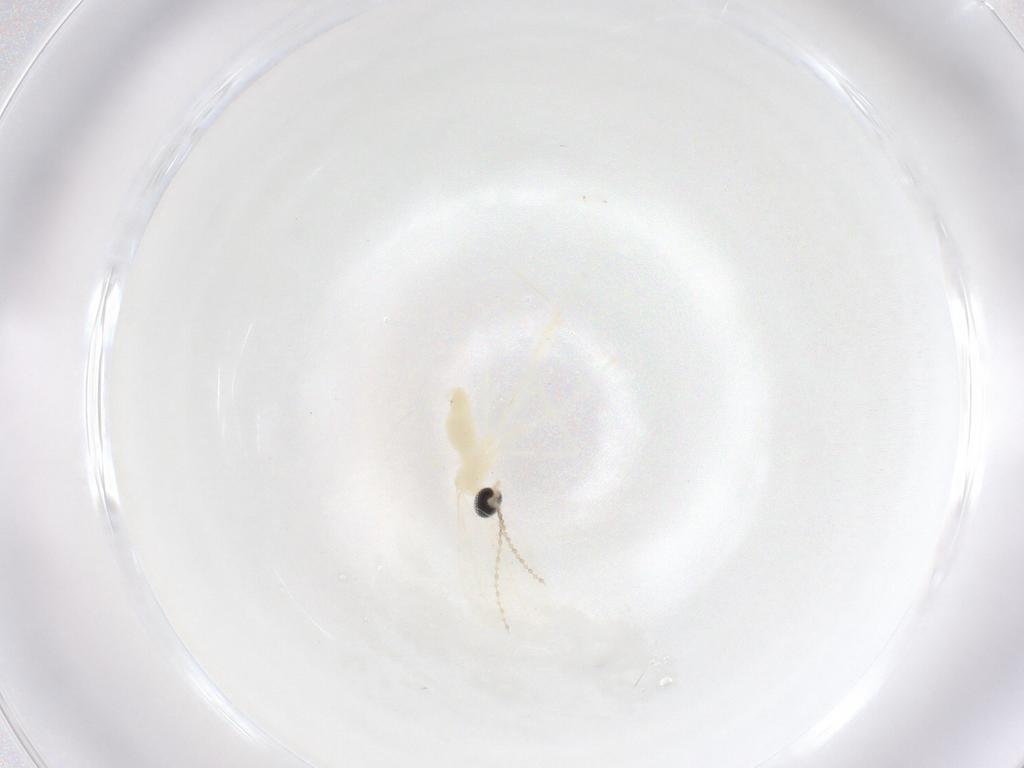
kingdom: Animalia
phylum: Arthropoda
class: Insecta
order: Diptera
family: Cecidomyiidae
